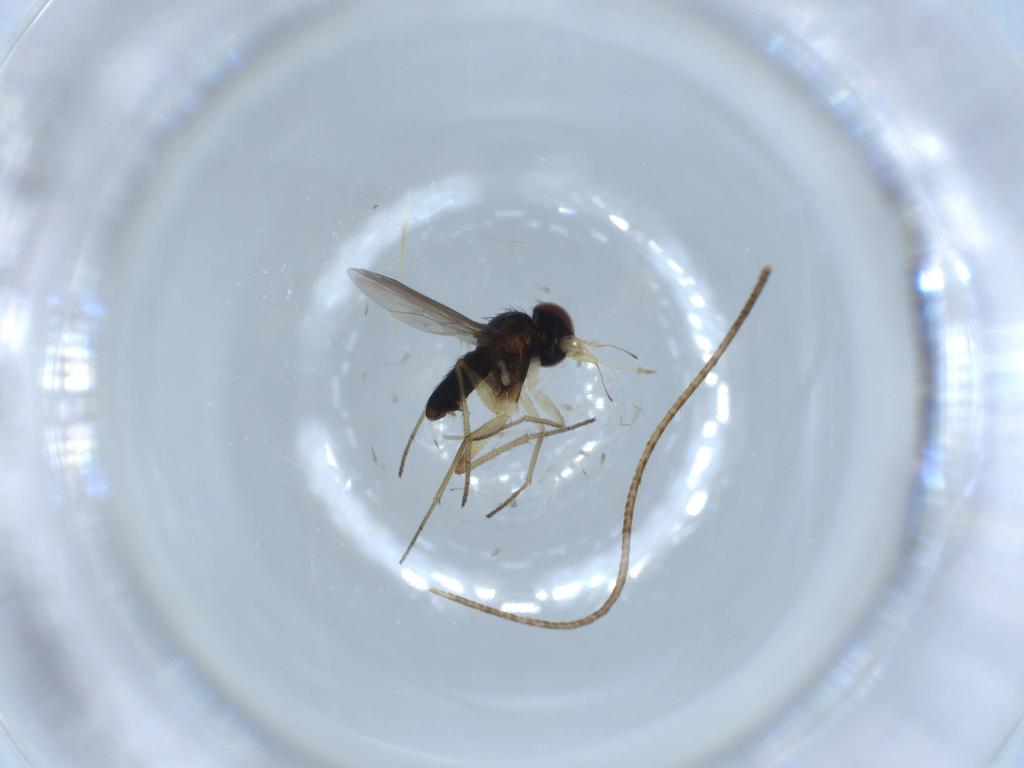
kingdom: Animalia
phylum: Arthropoda
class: Insecta
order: Diptera
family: Dolichopodidae
